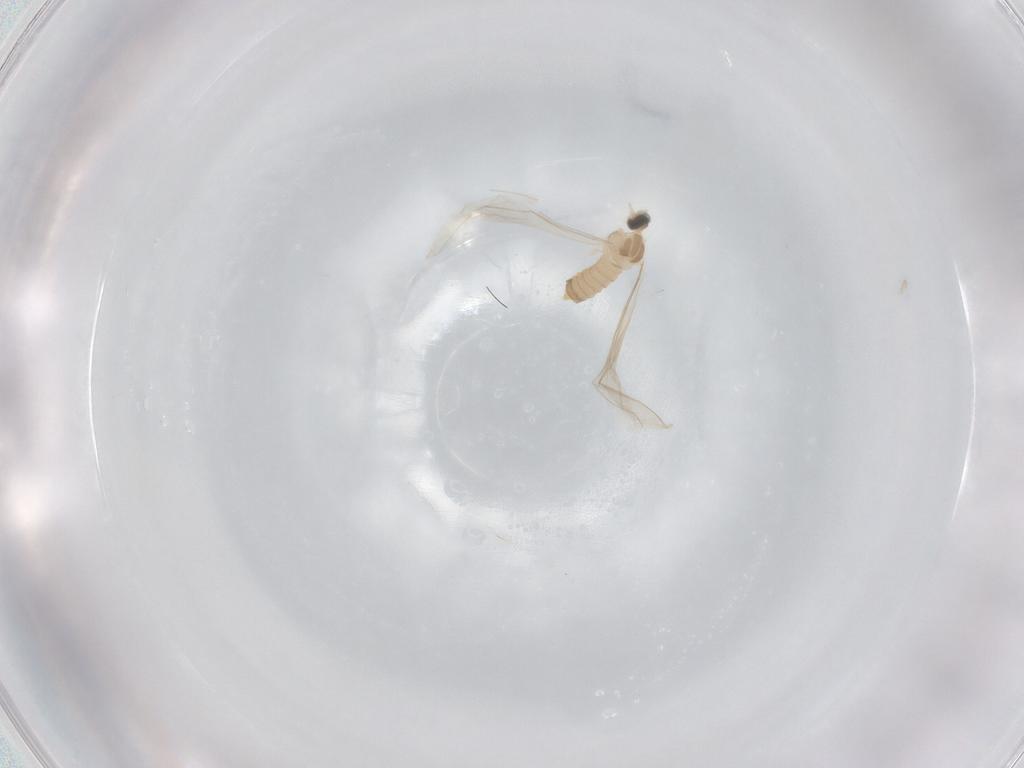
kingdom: Animalia
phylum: Arthropoda
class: Insecta
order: Diptera
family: Cecidomyiidae
